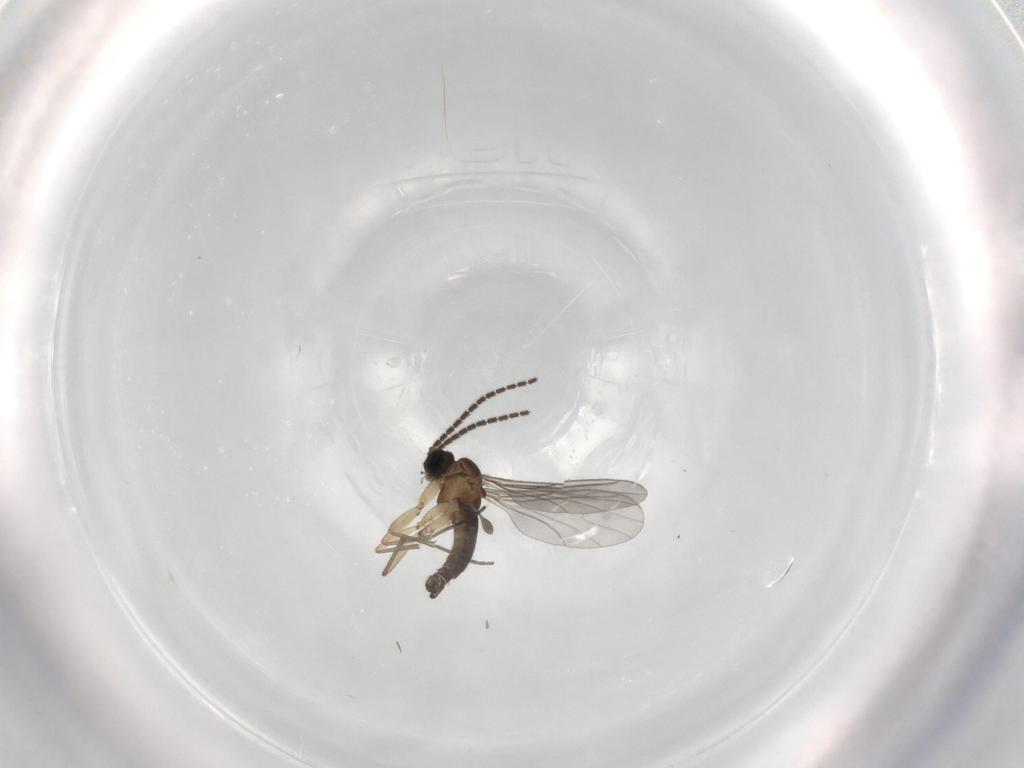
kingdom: Animalia
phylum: Arthropoda
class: Insecta
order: Diptera
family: Sciaridae
